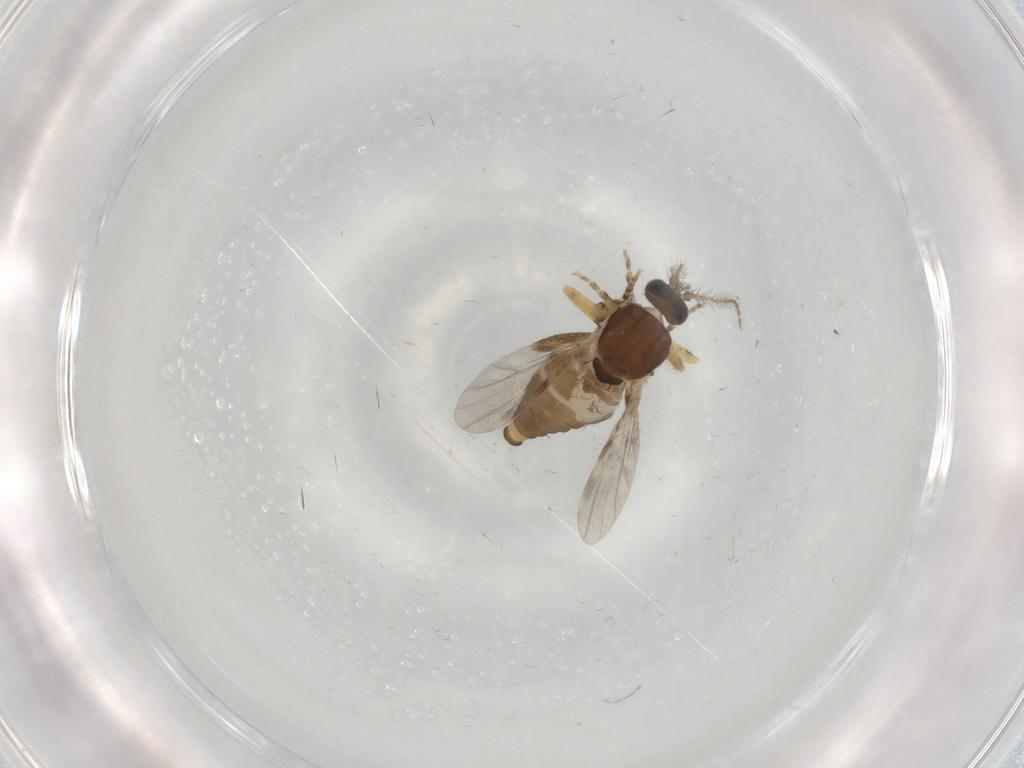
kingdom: Animalia
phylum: Arthropoda
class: Insecta
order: Diptera
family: Ceratopogonidae
